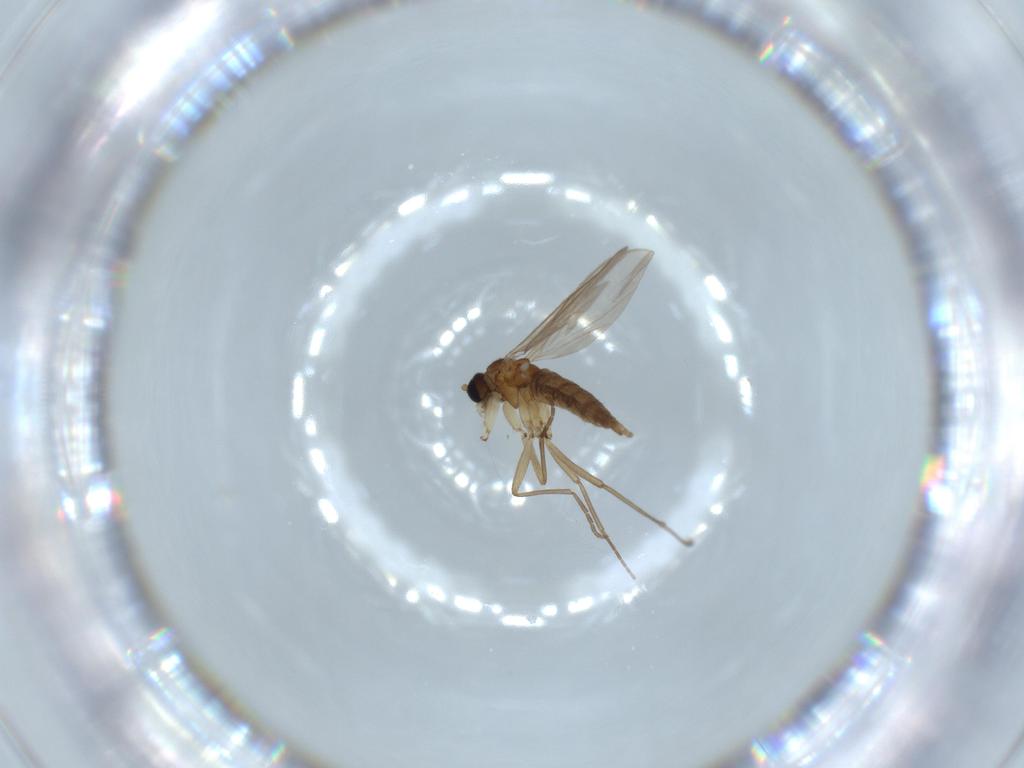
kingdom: Animalia
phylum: Arthropoda
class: Insecta
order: Diptera
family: Sciaridae
